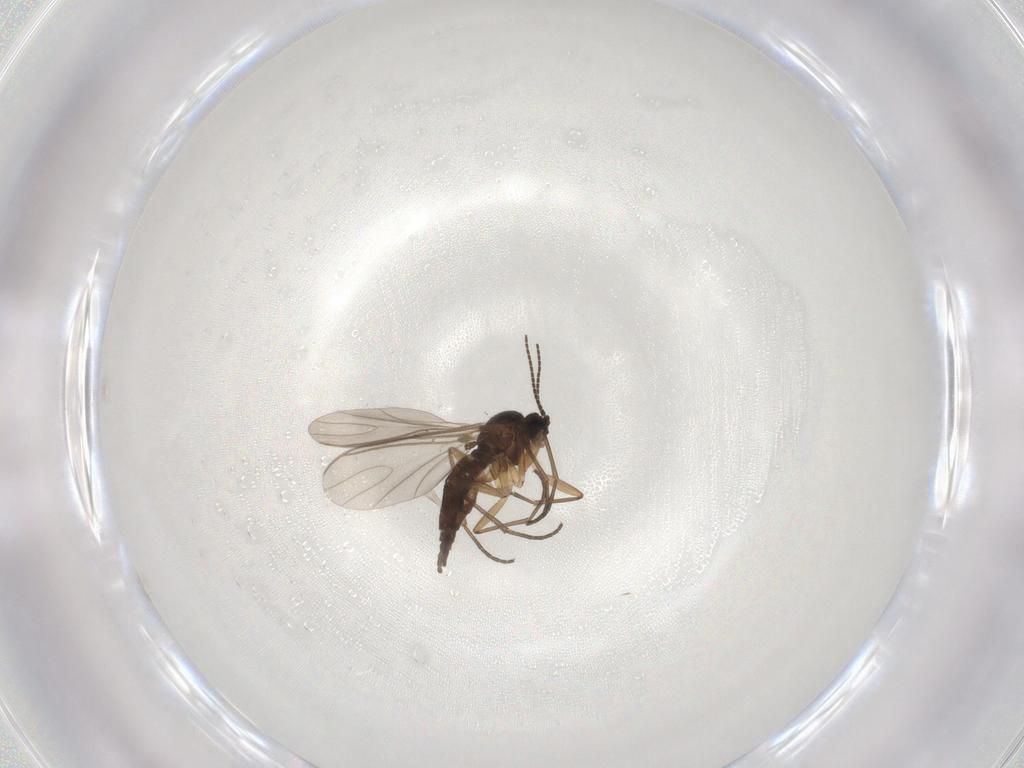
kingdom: Animalia
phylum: Arthropoda
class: Insecta
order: Diptera
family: Sciaridae
